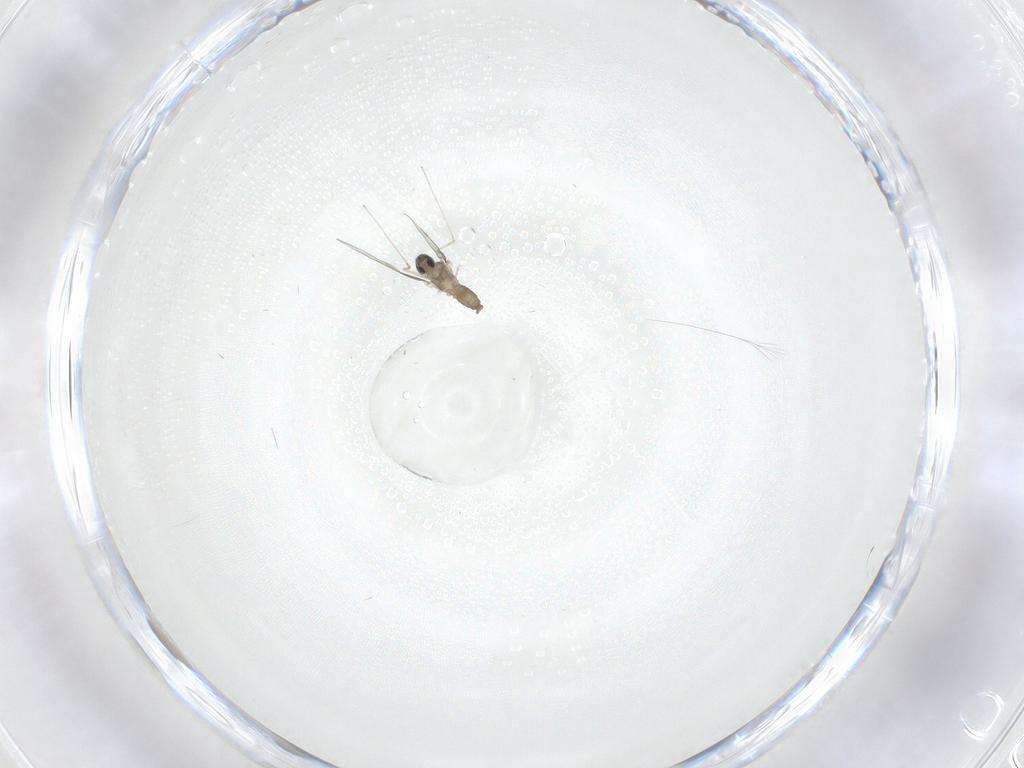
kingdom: Animalia
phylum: Arthropoda
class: Insecta
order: Diptera
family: Cecidomyiidae
